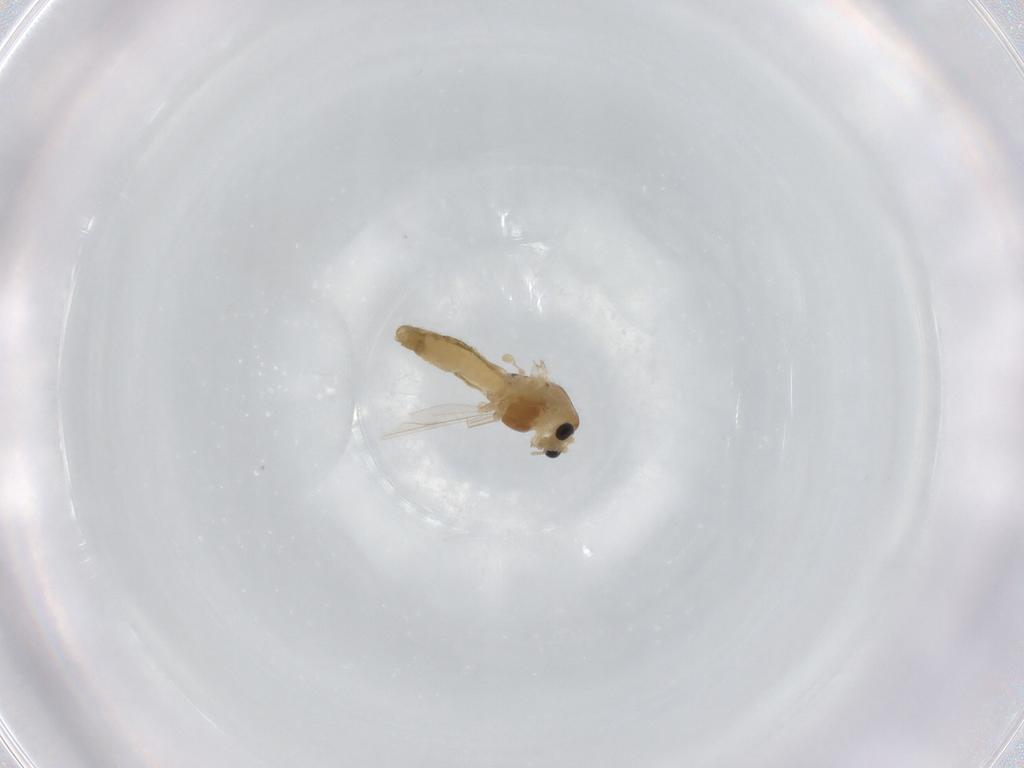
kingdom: Animalia
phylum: Arthropoda
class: Insecta
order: Diptera
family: Chironomidae
